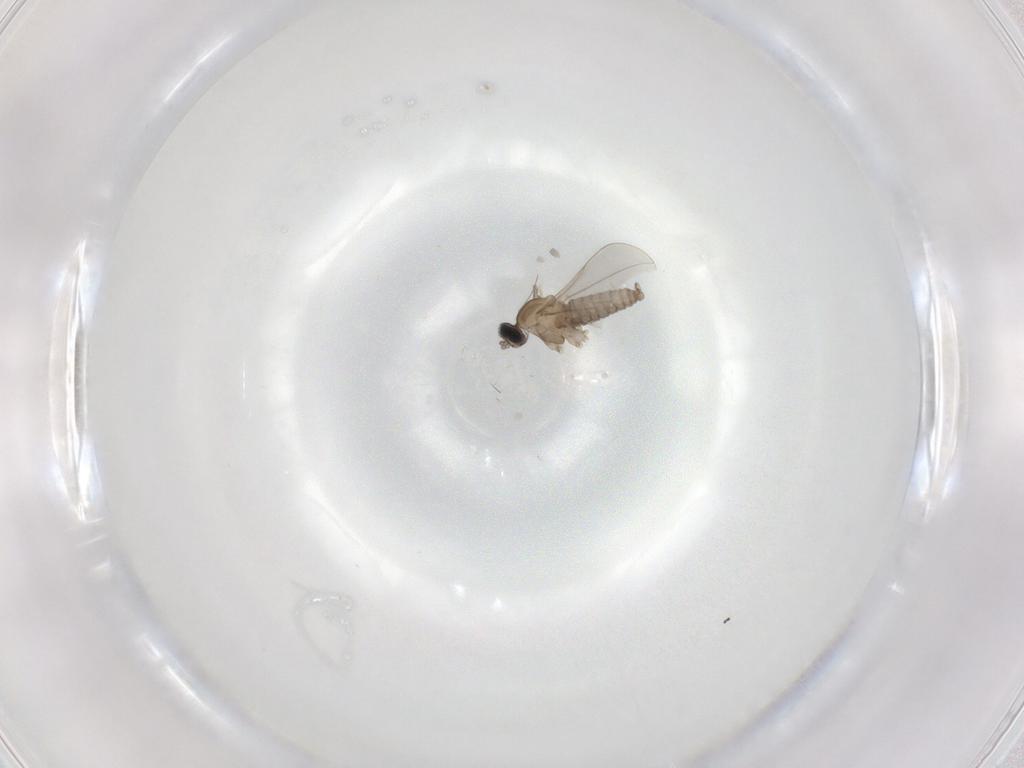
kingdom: Animalia
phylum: Arthropoda
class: Insecta
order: Diptera
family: Cecidomyiidae
